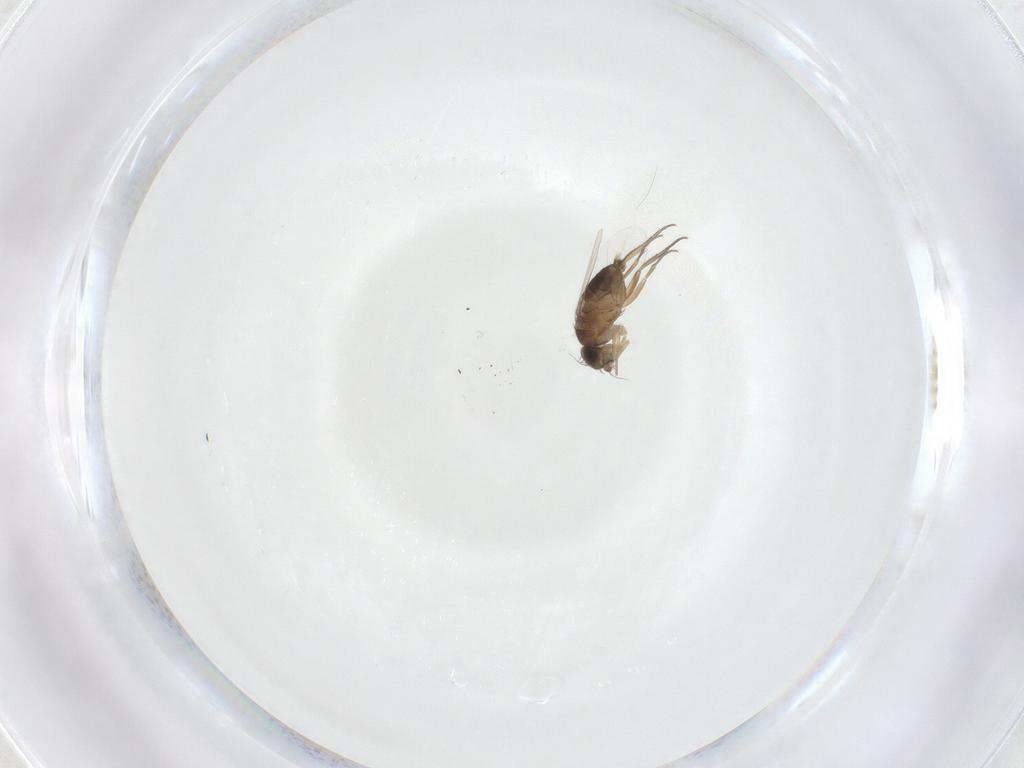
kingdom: Animalia
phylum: Arthropoda
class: Insecta
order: Diptera
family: Phoridae
